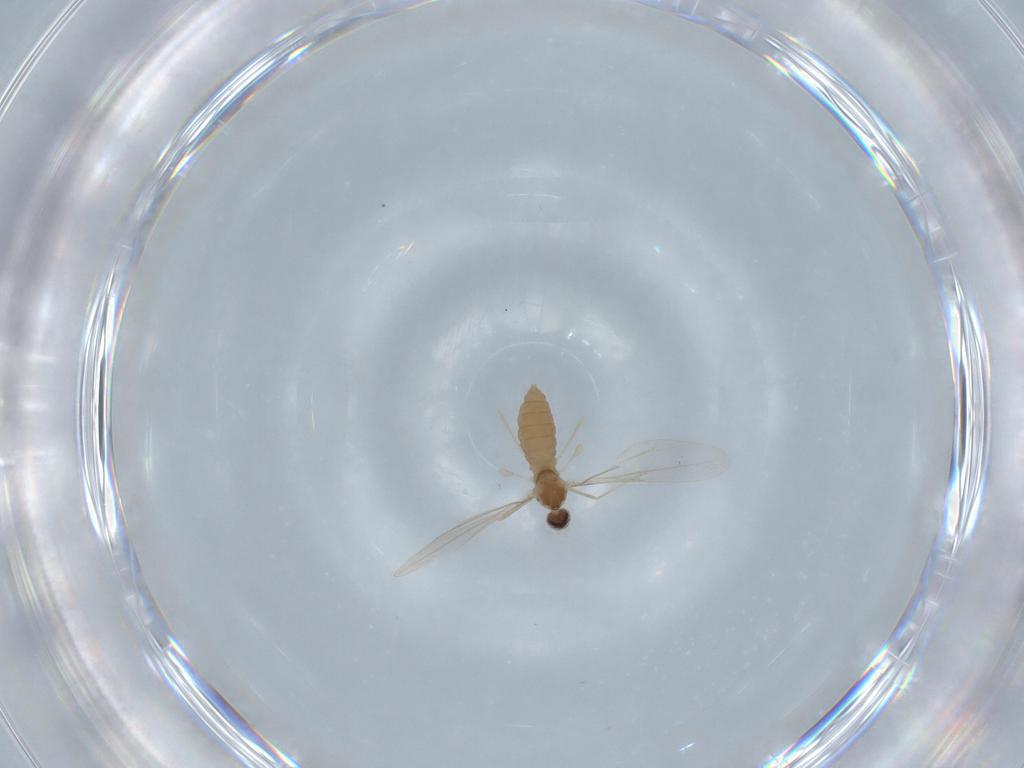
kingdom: Animalia
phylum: Arthropoda
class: Insecta
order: Diptera
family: Cecidomyiidae
